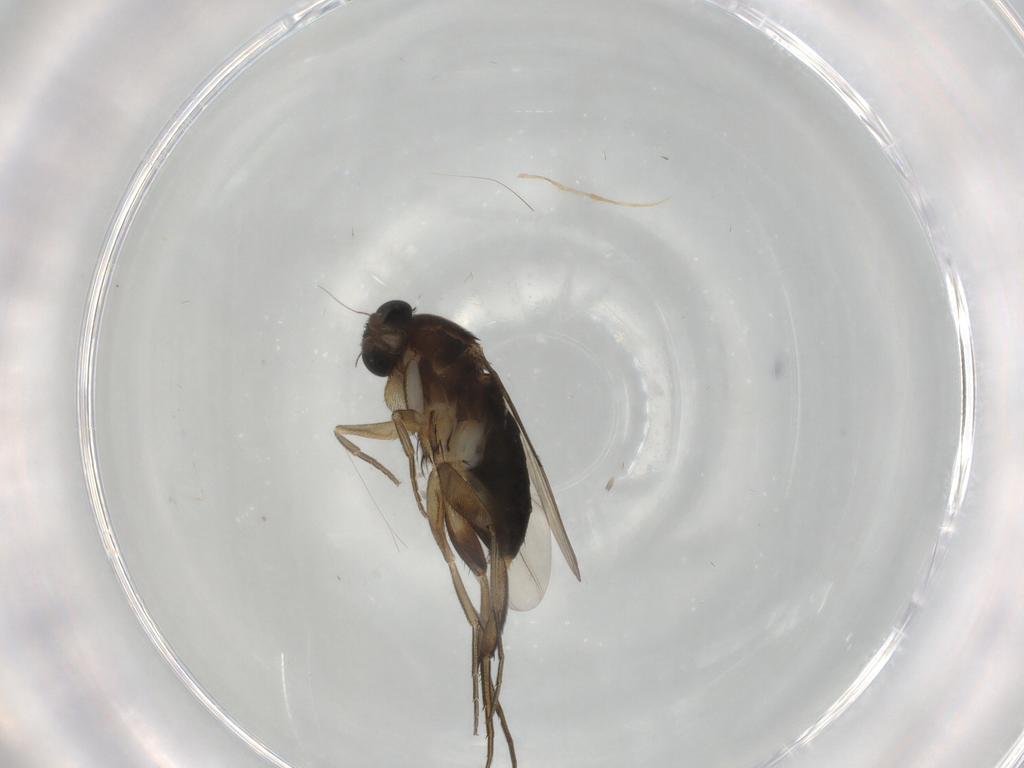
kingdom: Animalia
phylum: Arthropoda
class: Insecta
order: Diptera
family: Phoridae
